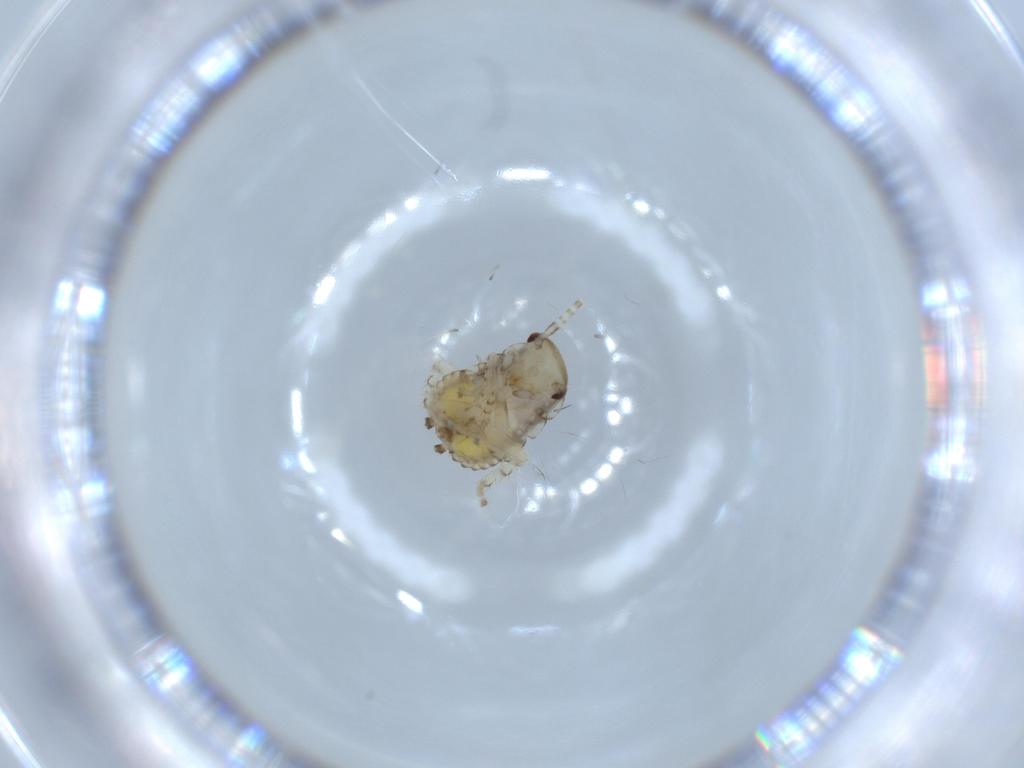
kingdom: Animalia
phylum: Arthropoda
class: Insecta
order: Blattodea
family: Ectobiidae
